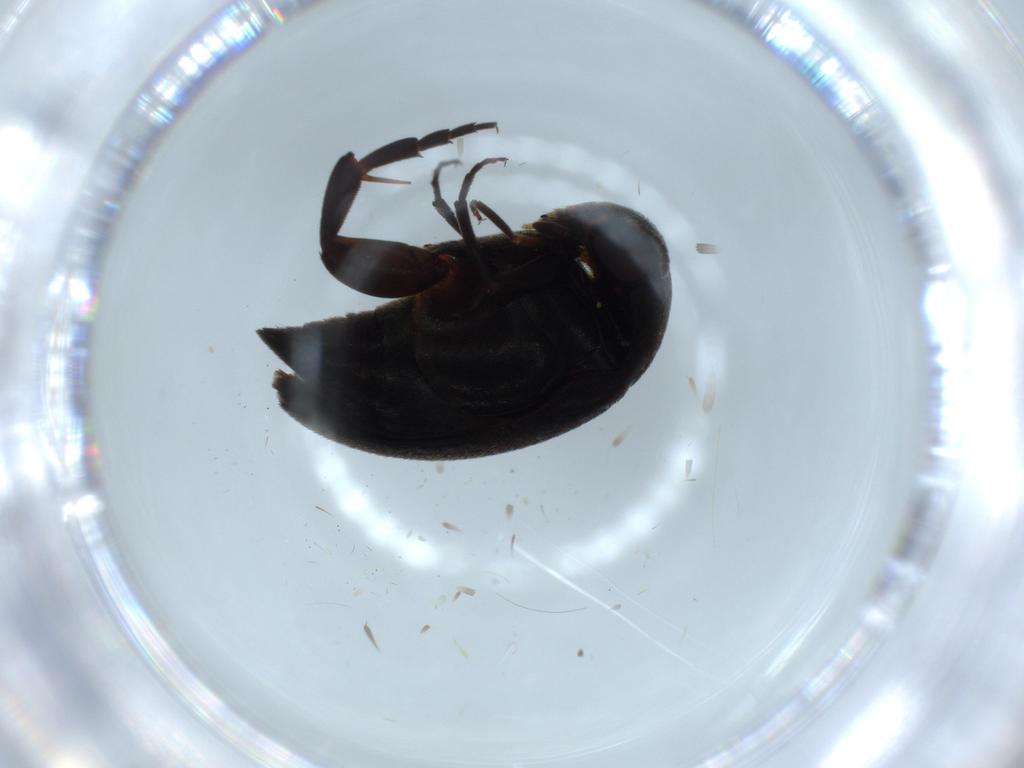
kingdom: Animalia
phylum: Arthropoda
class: Insecta
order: Coleoptera
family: Mordellidae
